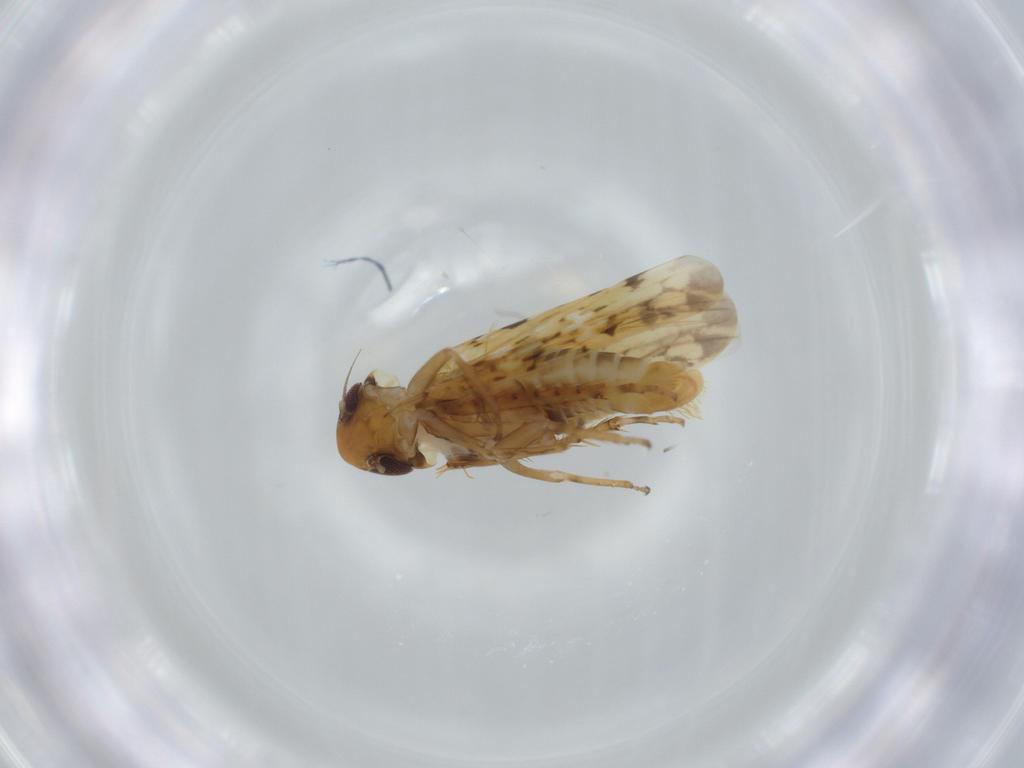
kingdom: Animalia
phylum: Arthropoda
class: Insecta
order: Hemiptera
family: Cicadellidae
